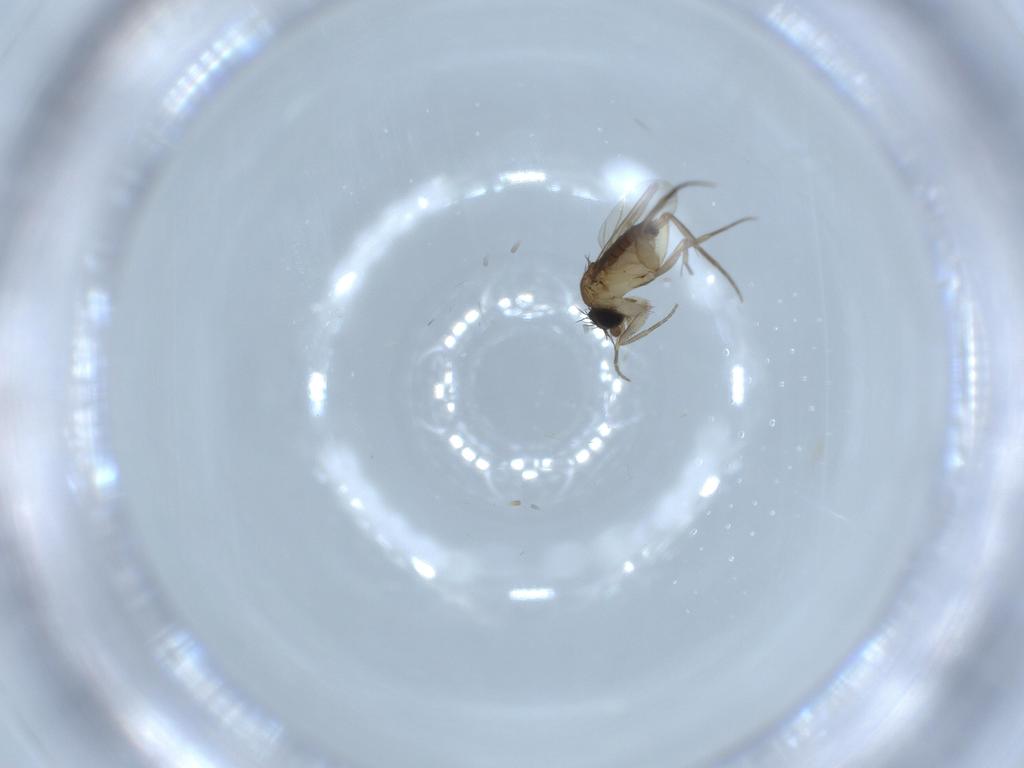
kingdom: Animalia
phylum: Arthropoda
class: Insecta
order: Diptera
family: Phoridae
